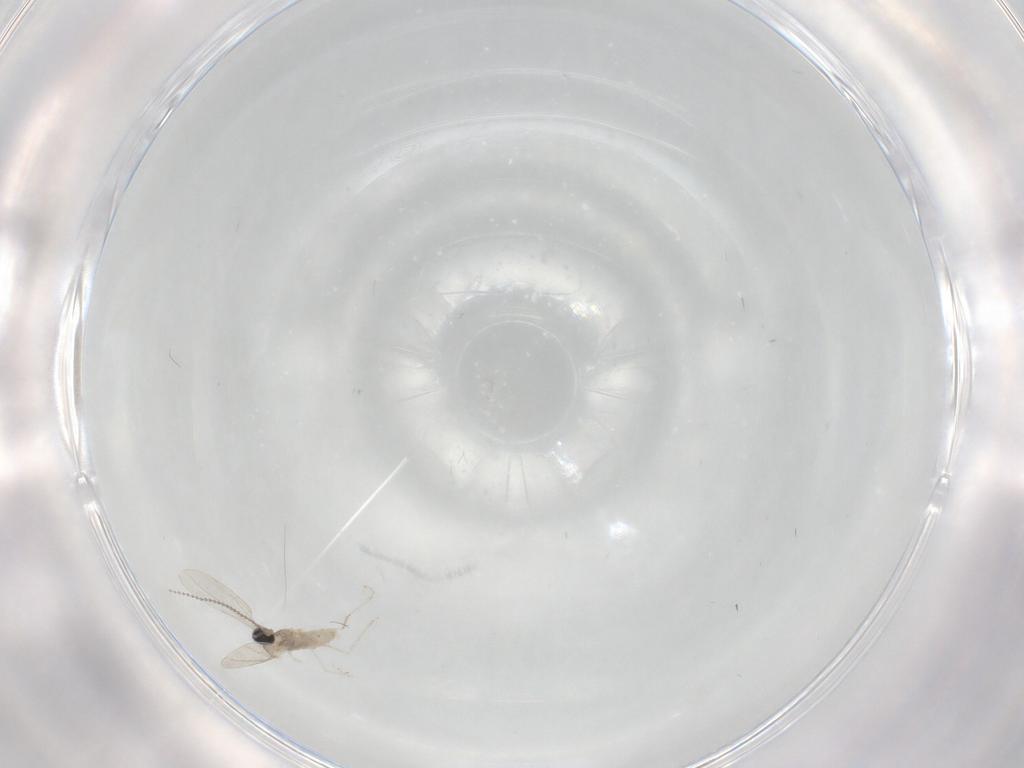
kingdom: Animalia
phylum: Arthropoda
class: Insecta
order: Diptera
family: Cecidomyiidae
